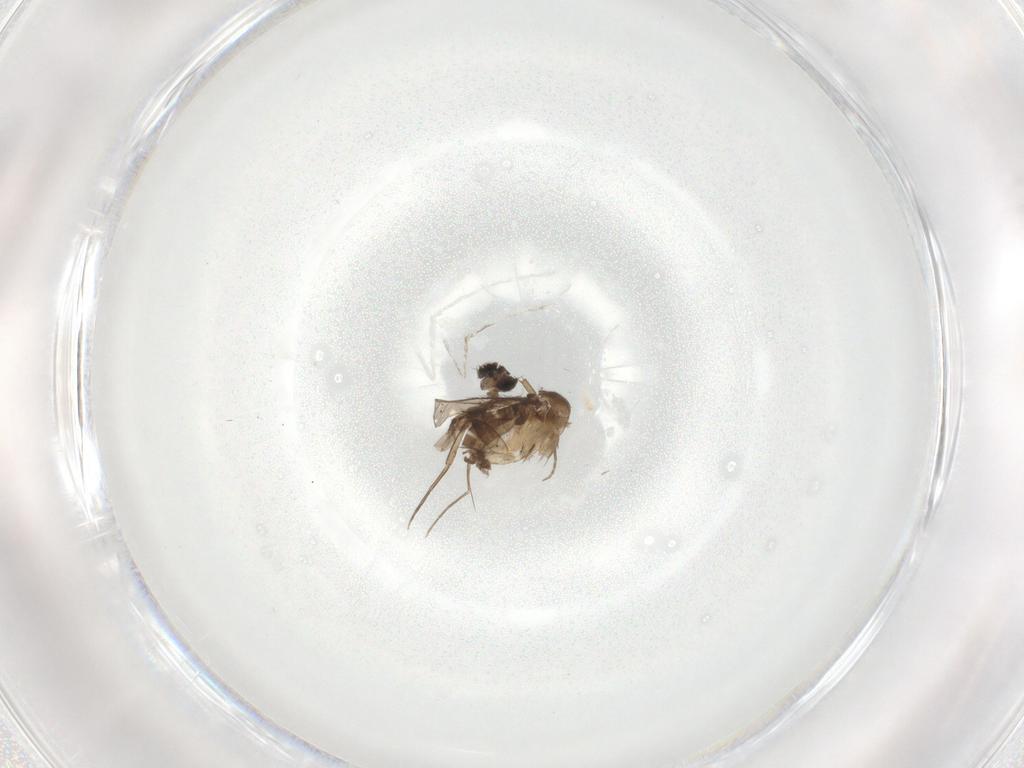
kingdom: Animalia
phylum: Arthropoda
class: Insecta
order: Diptera
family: Phoridae
